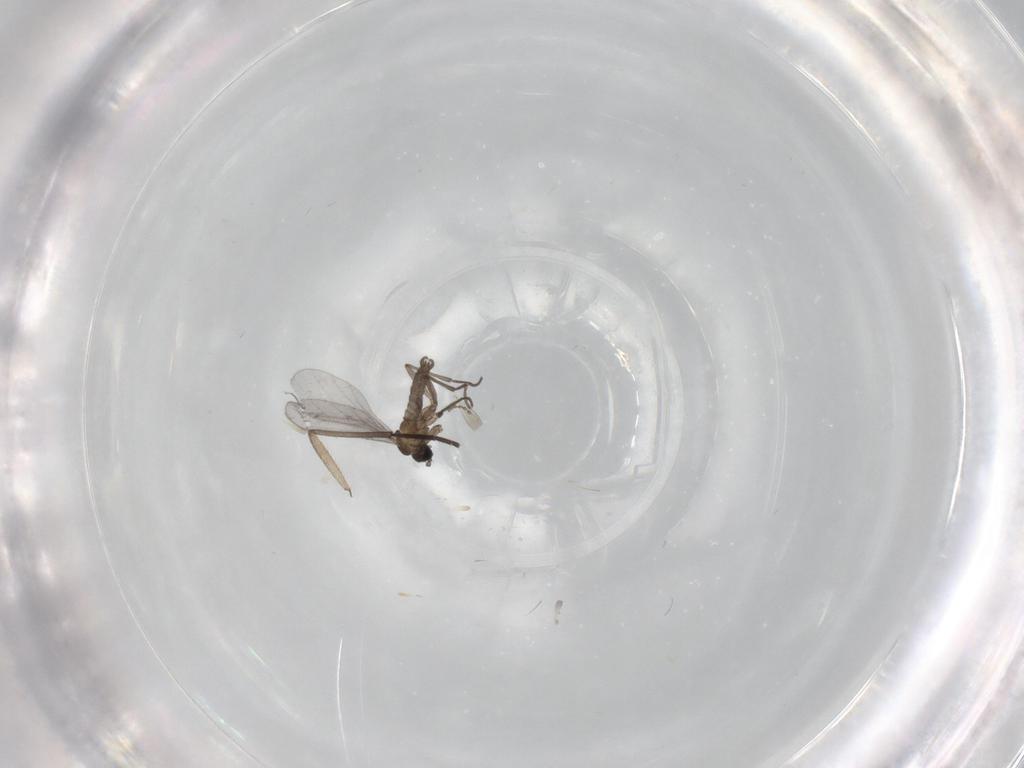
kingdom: Animalia
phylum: Arthropoda
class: Insecta
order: Diptera
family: Sciaridae
